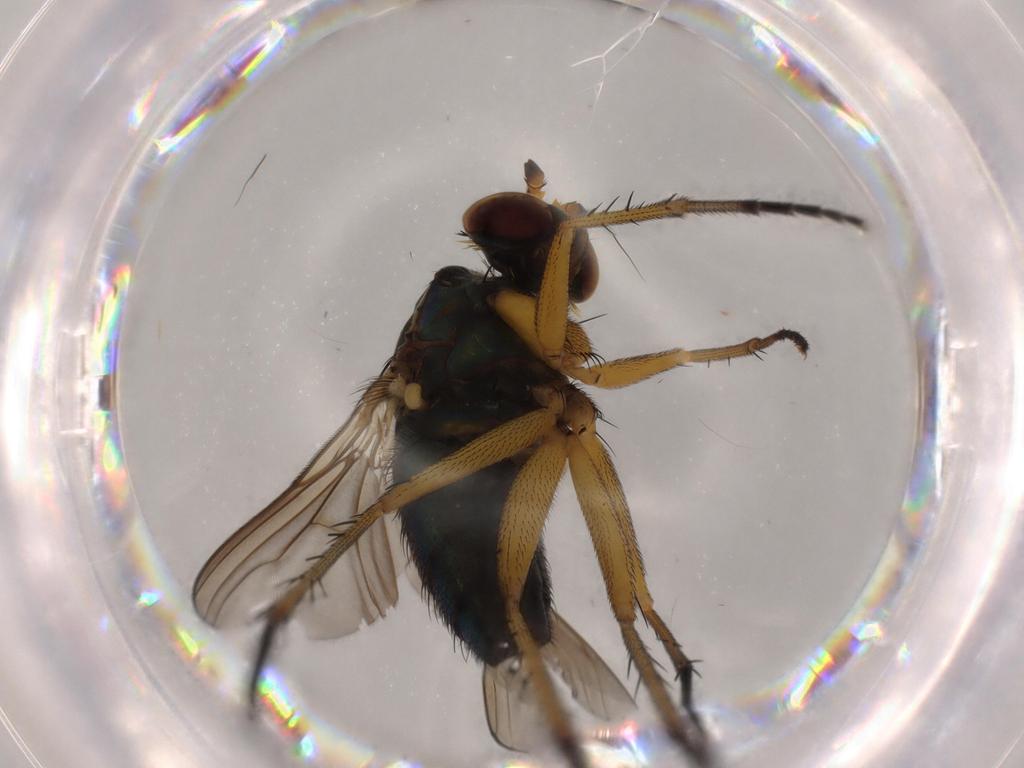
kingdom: Animalia
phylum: Arthropoda
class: Insecta
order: Diptera
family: Dolichopodidae
